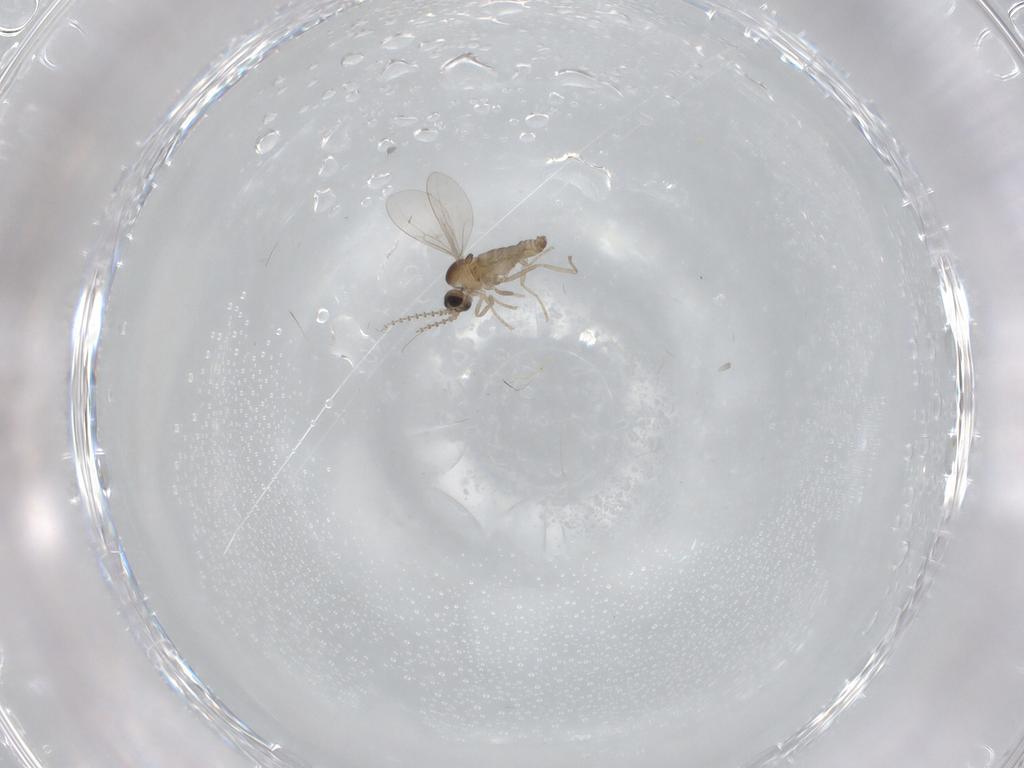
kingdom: Animalia
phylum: Arthropoda
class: Insecta
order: Diptera
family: Cecidomyiidae
